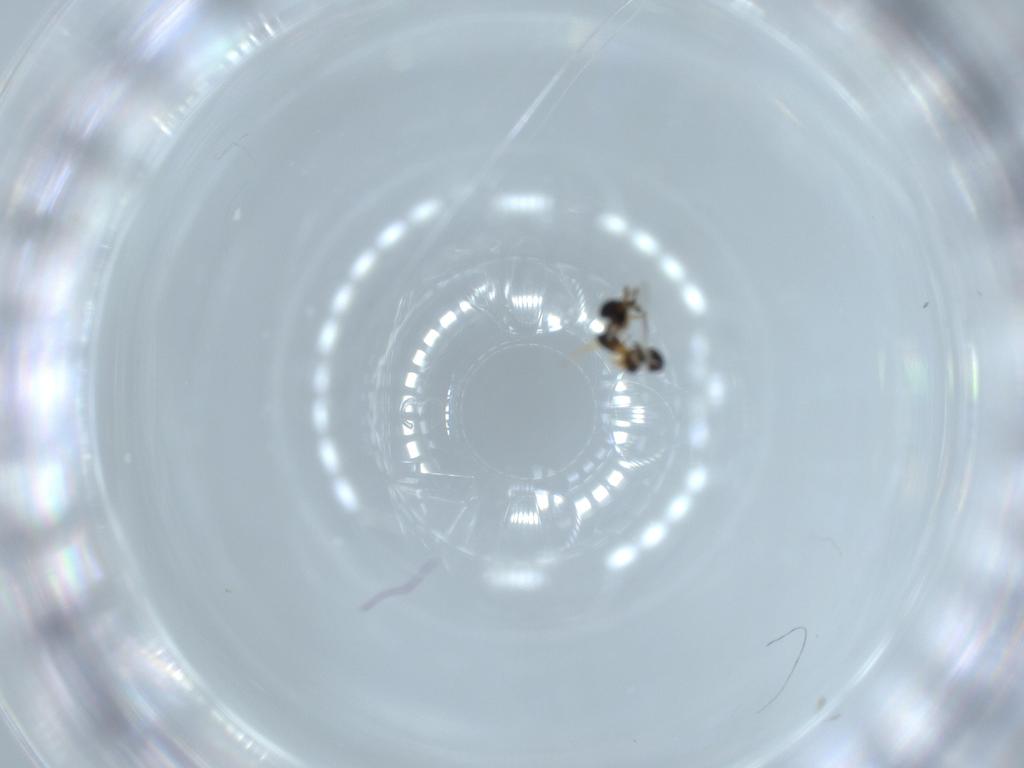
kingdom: Animalia
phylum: Arthropoda
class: Insecta
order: Hymenoptera
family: Scelionidae
